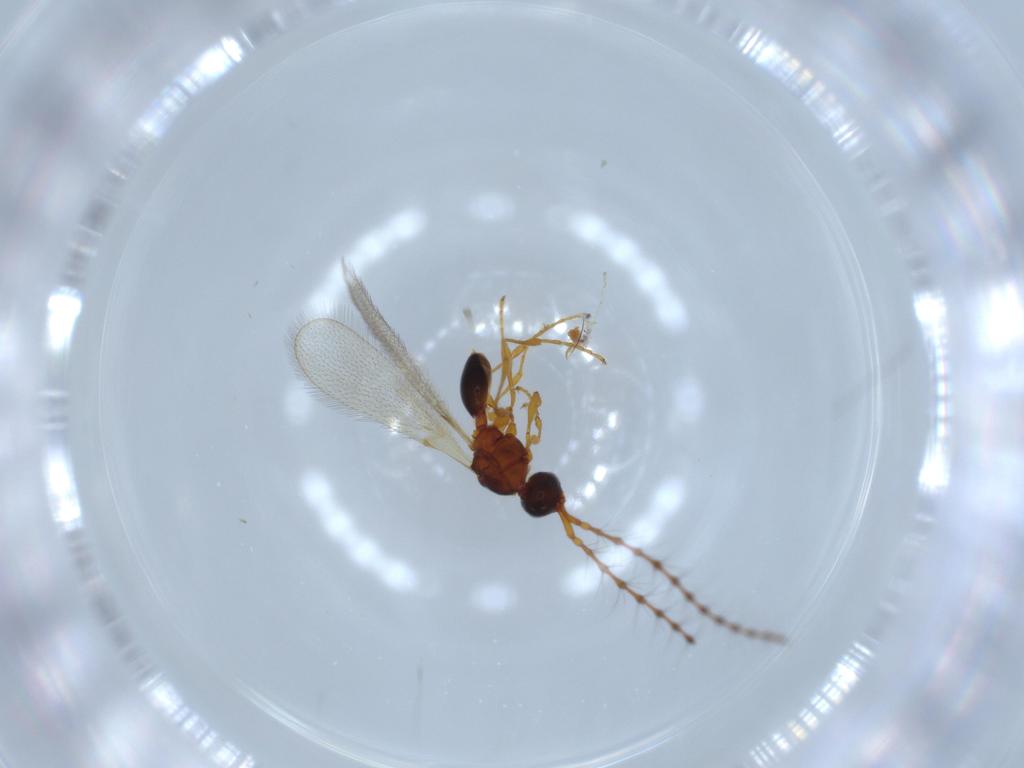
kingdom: Animalia
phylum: Arthropoda
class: Insecta
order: Hymenoptera
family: Diapriidae
